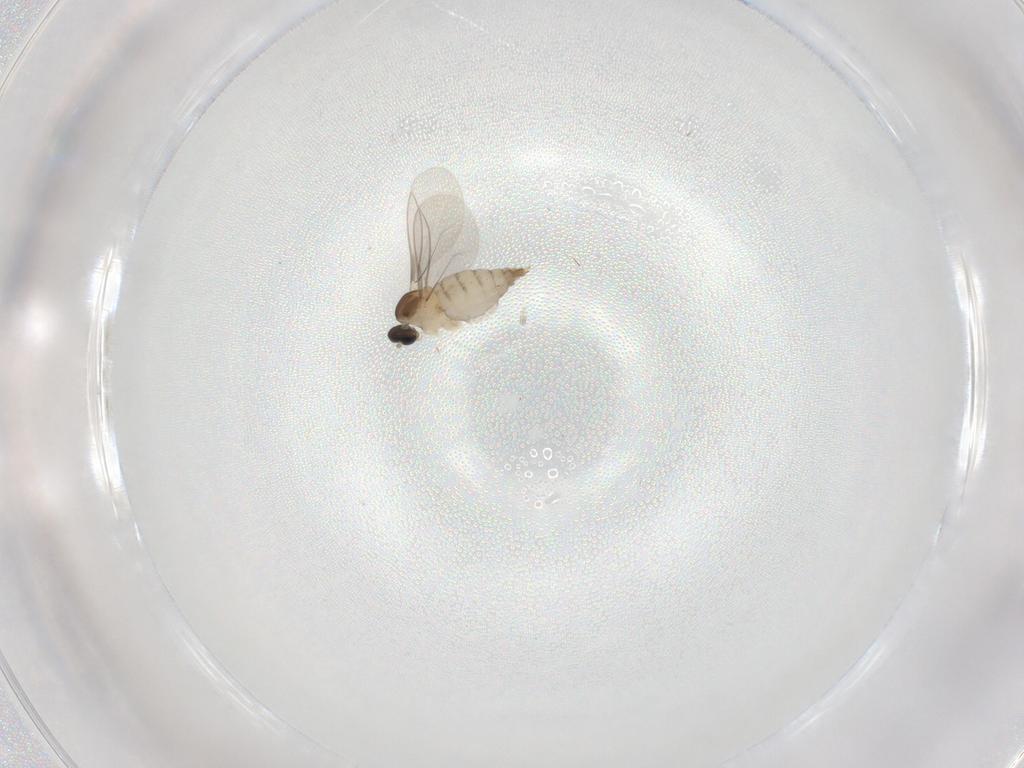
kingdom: Animalia
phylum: Arthropoda
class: Insecta
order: Diptera
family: Cecidomyiidae
